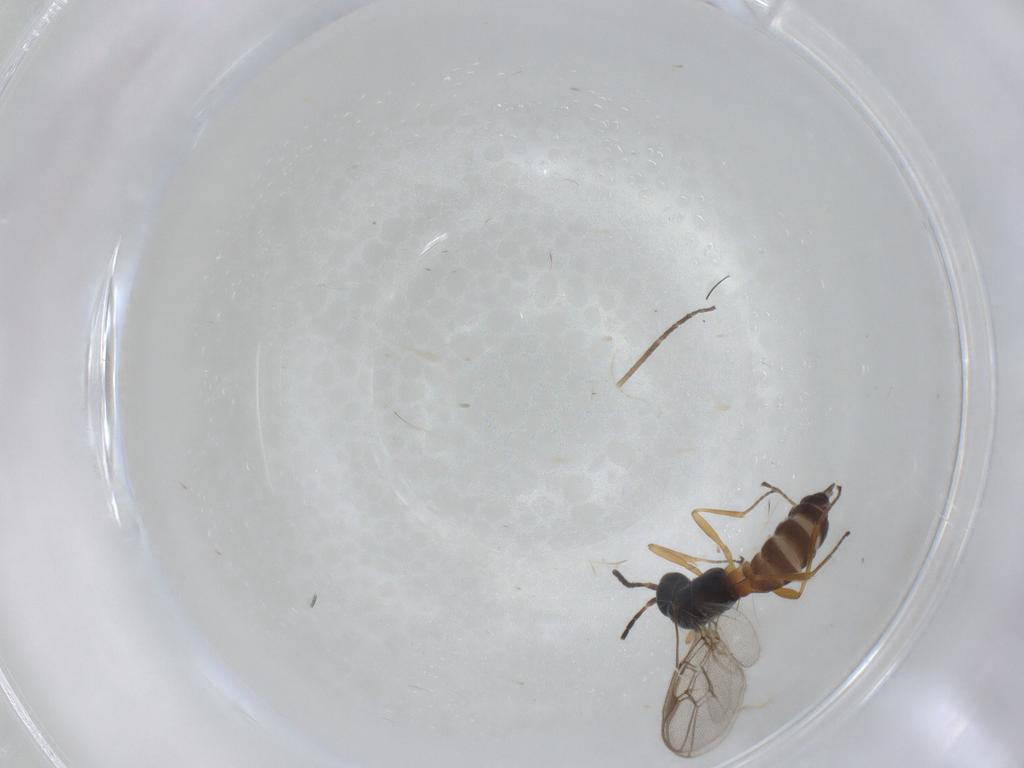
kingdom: Animalia
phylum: Arthropoda
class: Insecta
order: Hymenoptera
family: Braconidae
